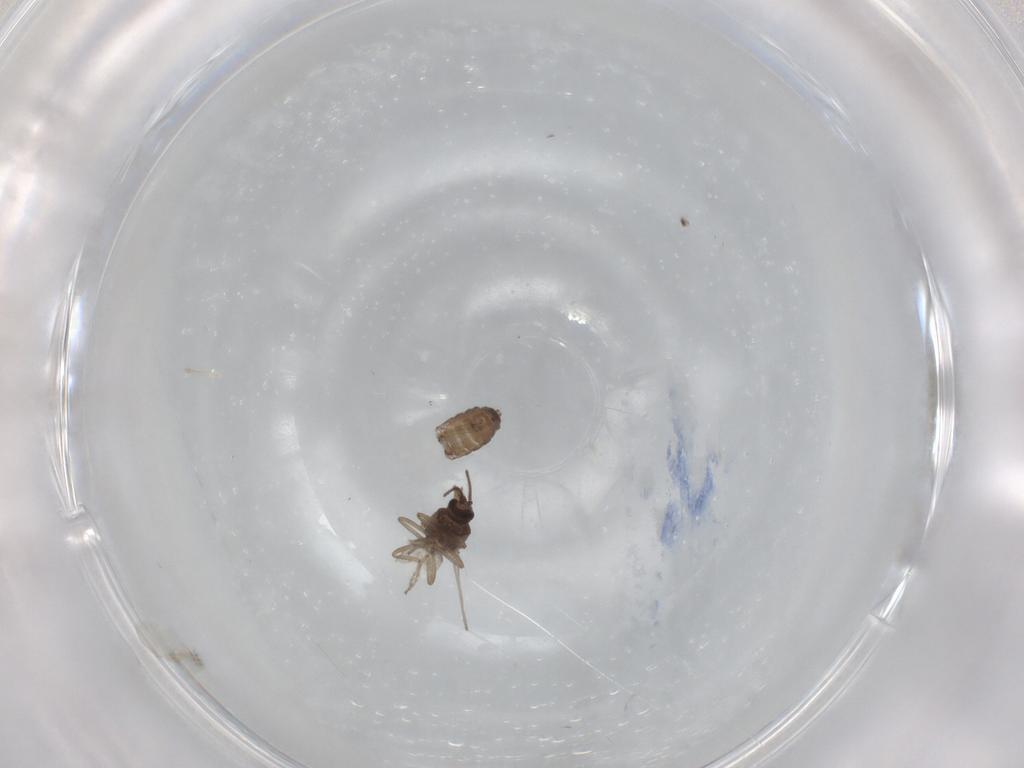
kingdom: Animalia
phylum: Arthropoda
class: Insecta
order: Diptera
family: Ceratopogonidae
